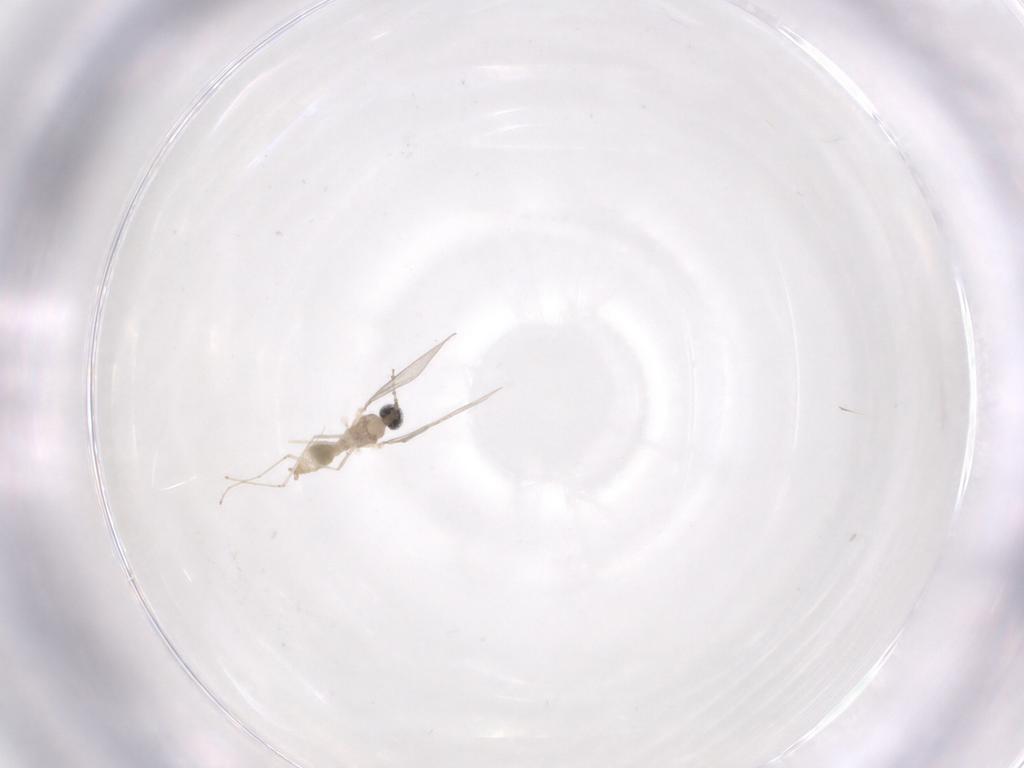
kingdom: Animalia
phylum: Arthropoda
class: Insecta
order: Diptera
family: Cecidomyiidae
